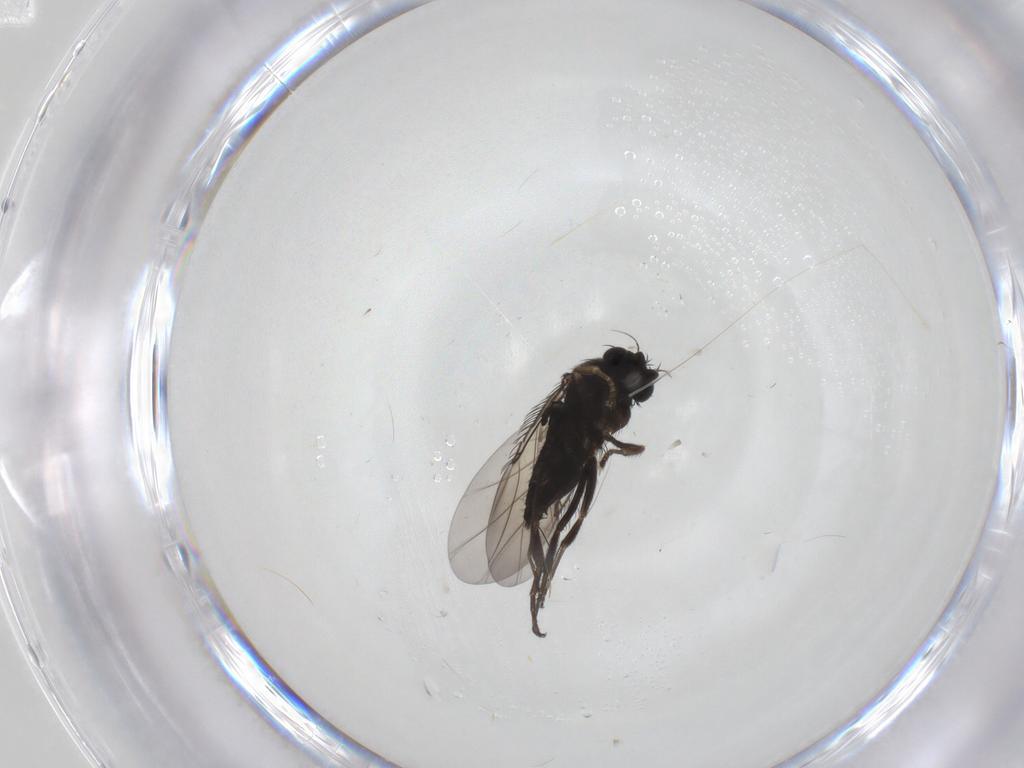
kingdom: Animalia
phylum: Arthropoda
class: Insecta
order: Diptera
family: Phoridae
